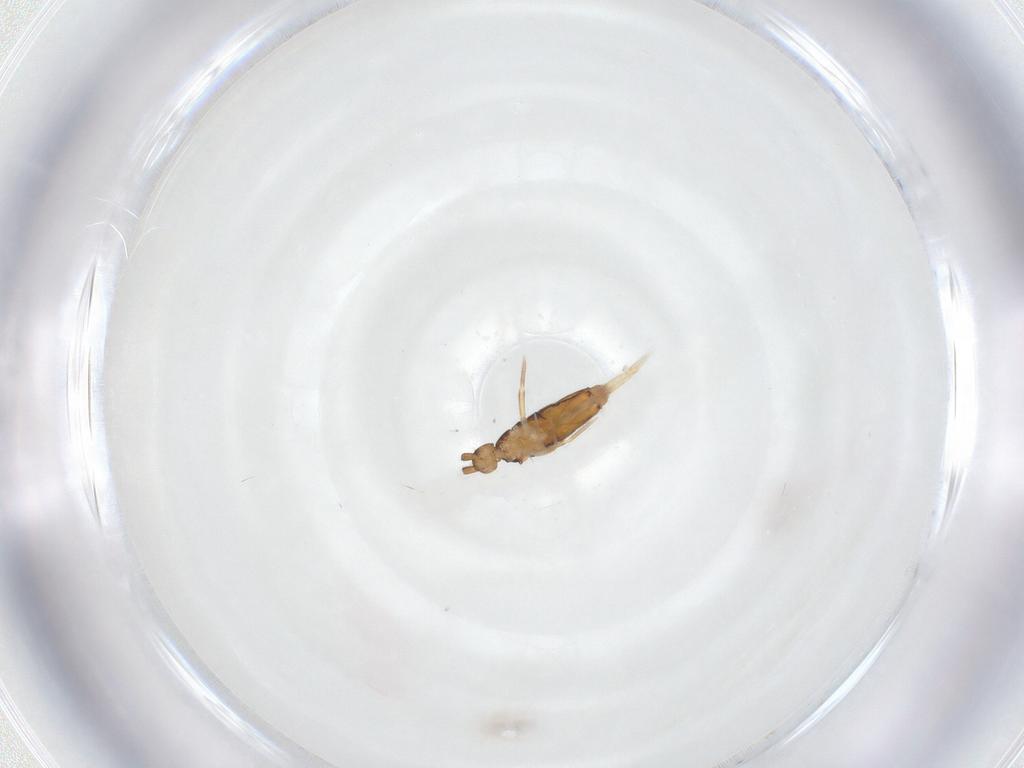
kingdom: Animalia
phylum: Arthropoda
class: Collembola
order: Entomobryomorpha
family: Entomobryidae
